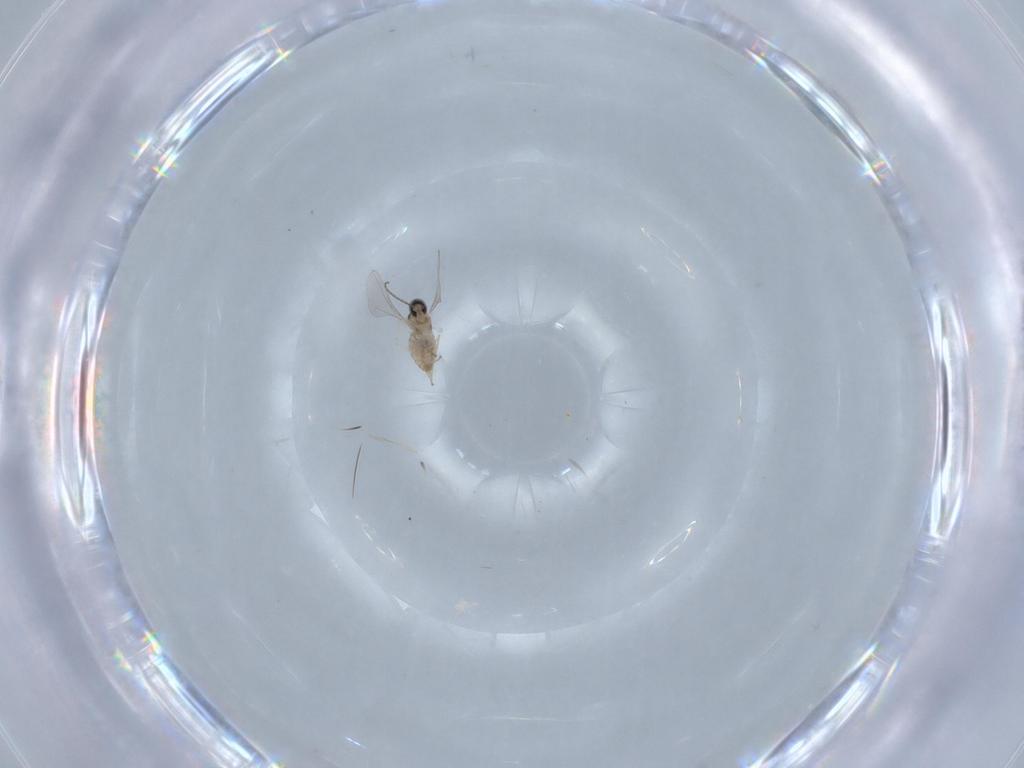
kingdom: Animalia
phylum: Arthropoda
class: Insecta
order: Diptera
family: Cecidomyiidae
